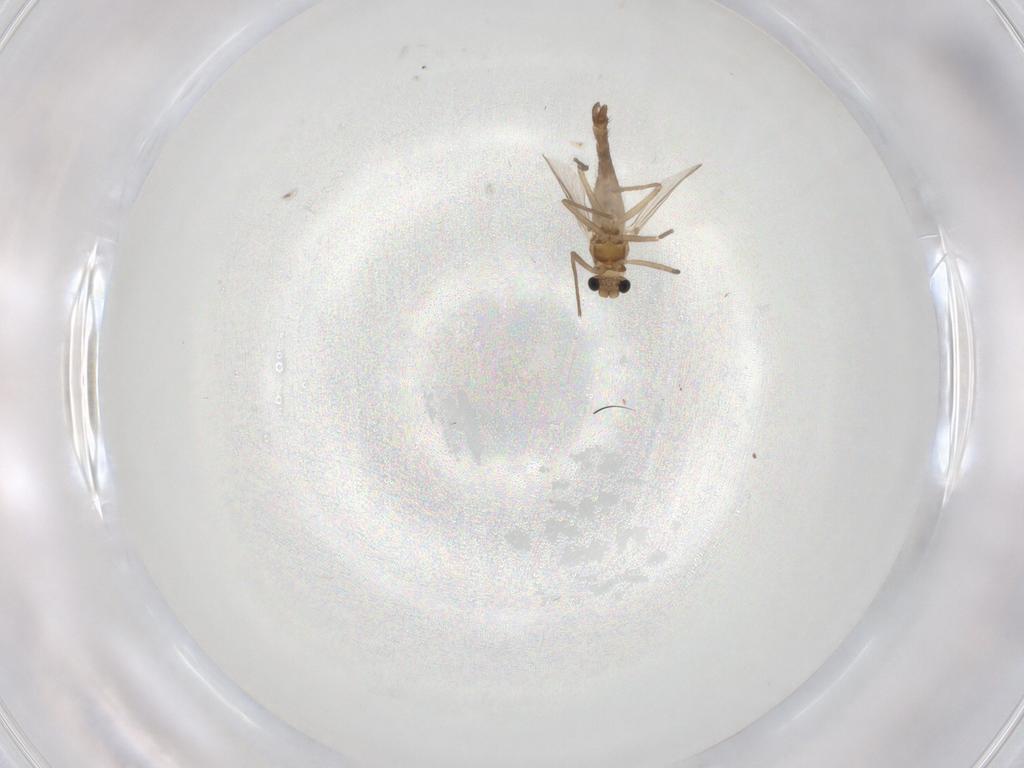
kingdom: Animalia
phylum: Arthropoda
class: Insecta
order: Diptera
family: Chironomidae
